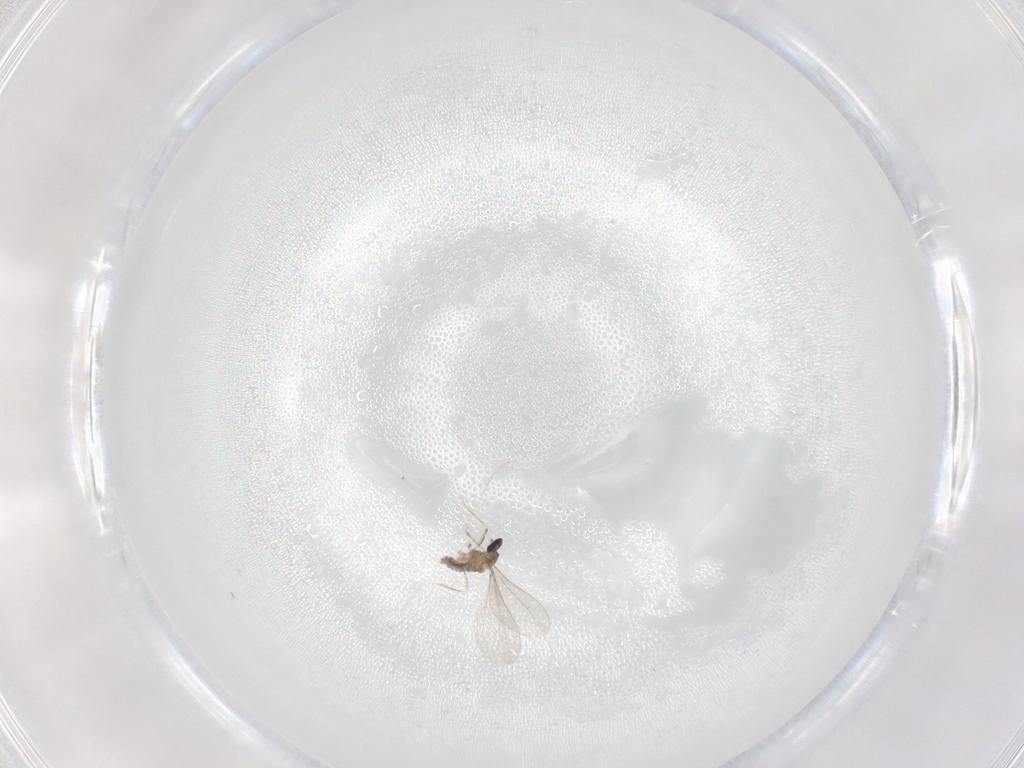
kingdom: Animalia
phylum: Arthropoda
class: Insecta
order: Diptera
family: Cecidomyiidae
